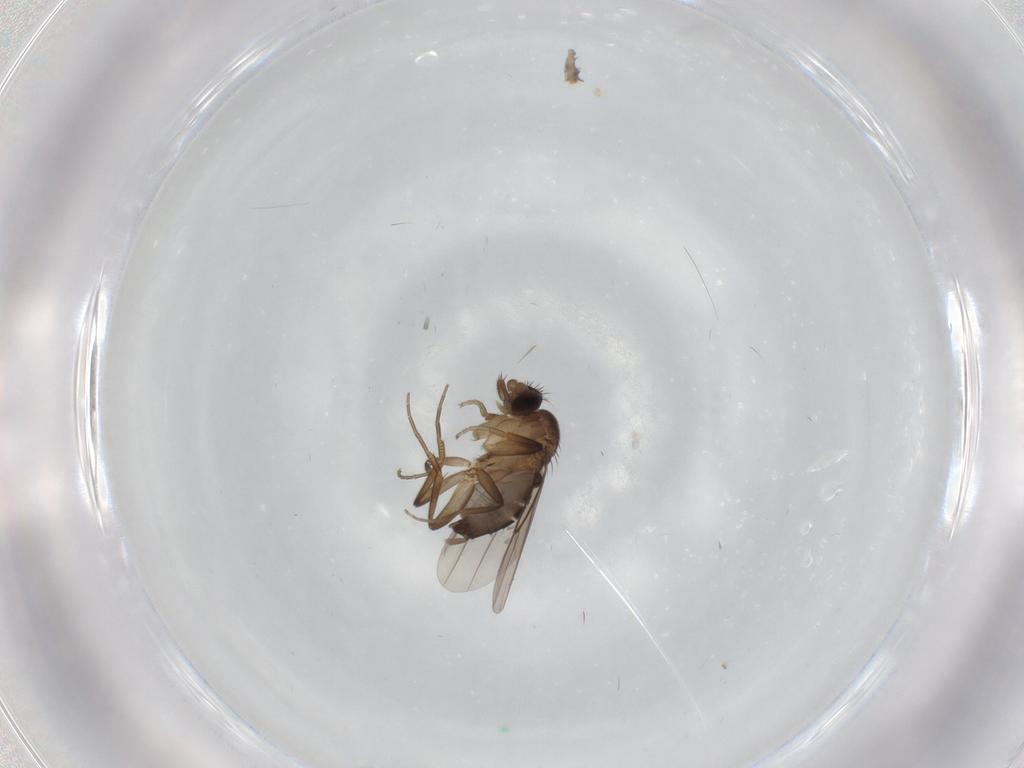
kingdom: Animalia
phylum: Arthropoda
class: Insecta
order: Diptera
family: Phoridae
